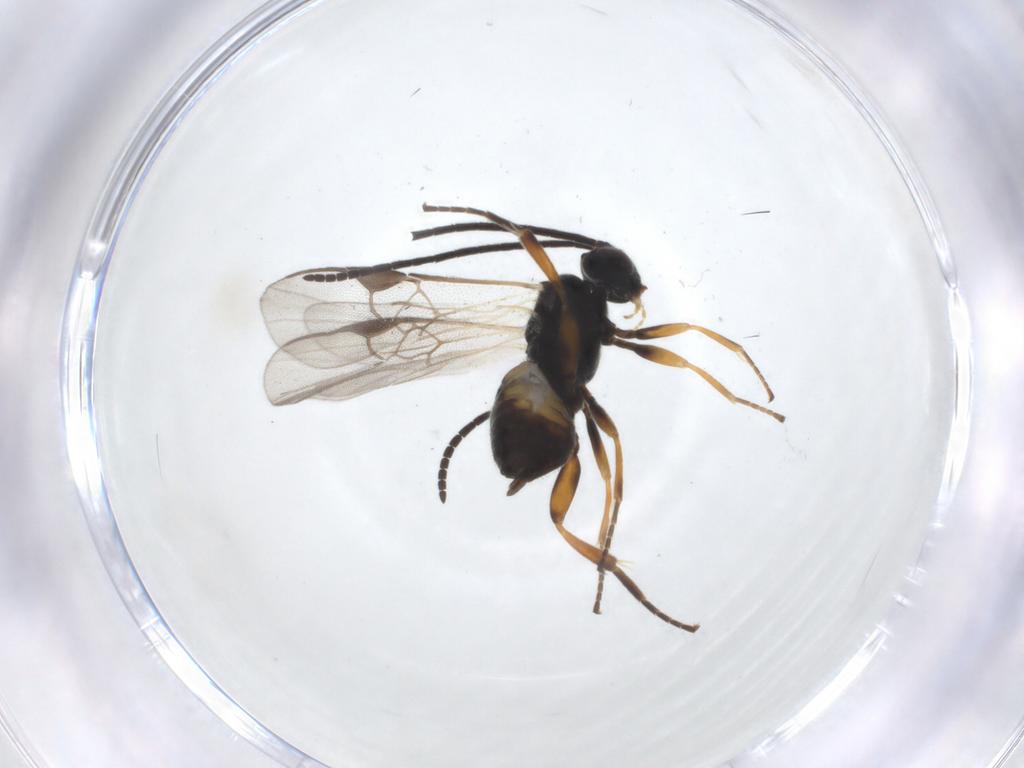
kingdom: Animalia
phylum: Arthropoda
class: Insecta
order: Hymenoptera
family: Braconidae
